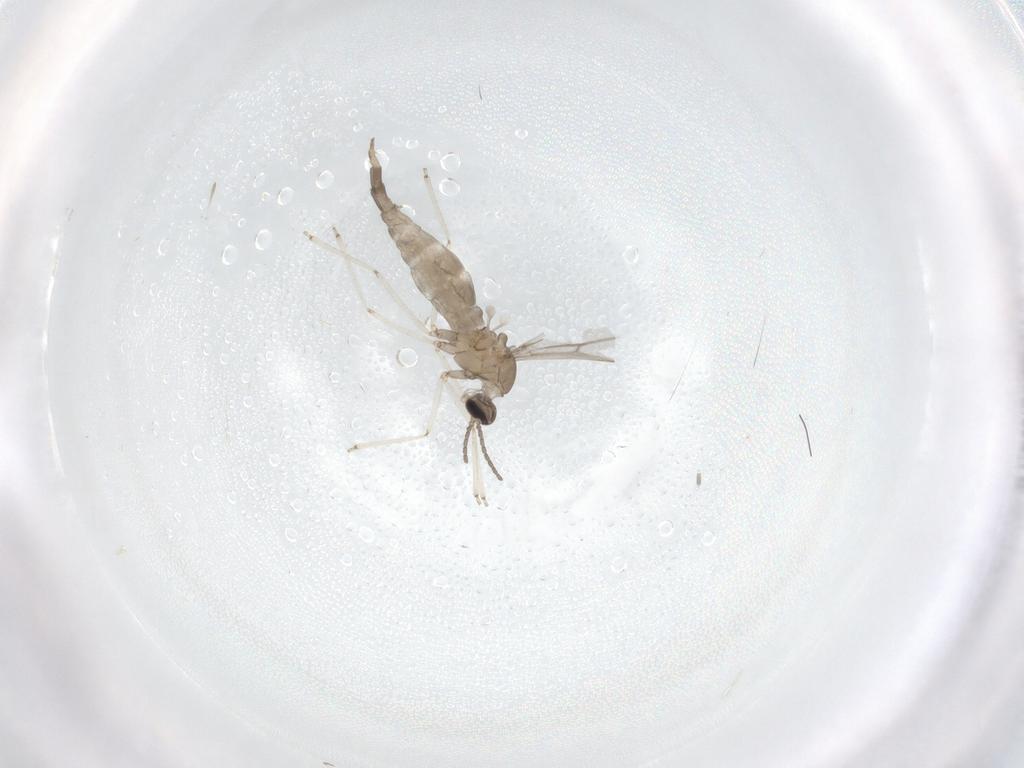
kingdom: Animalia
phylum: Arthropoda
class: Insecta
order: Diptera
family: Cecidomyiidae
